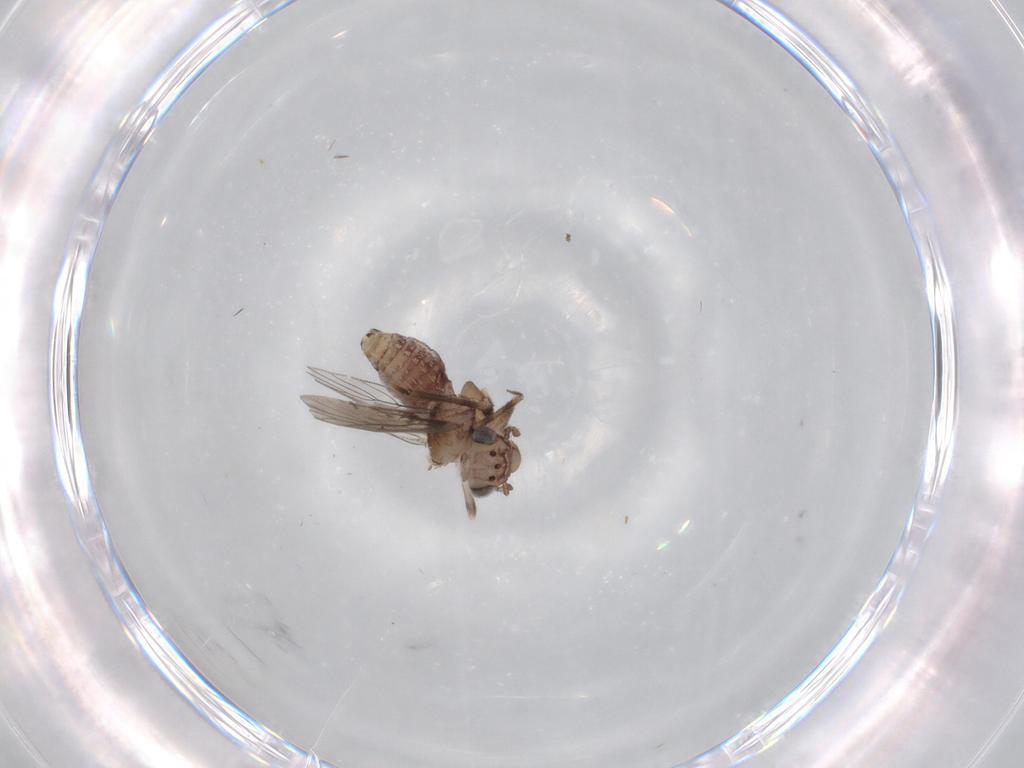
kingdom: Animalia
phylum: Arthropoda
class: Insecta
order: Psocodea
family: Lepidopsocidae
